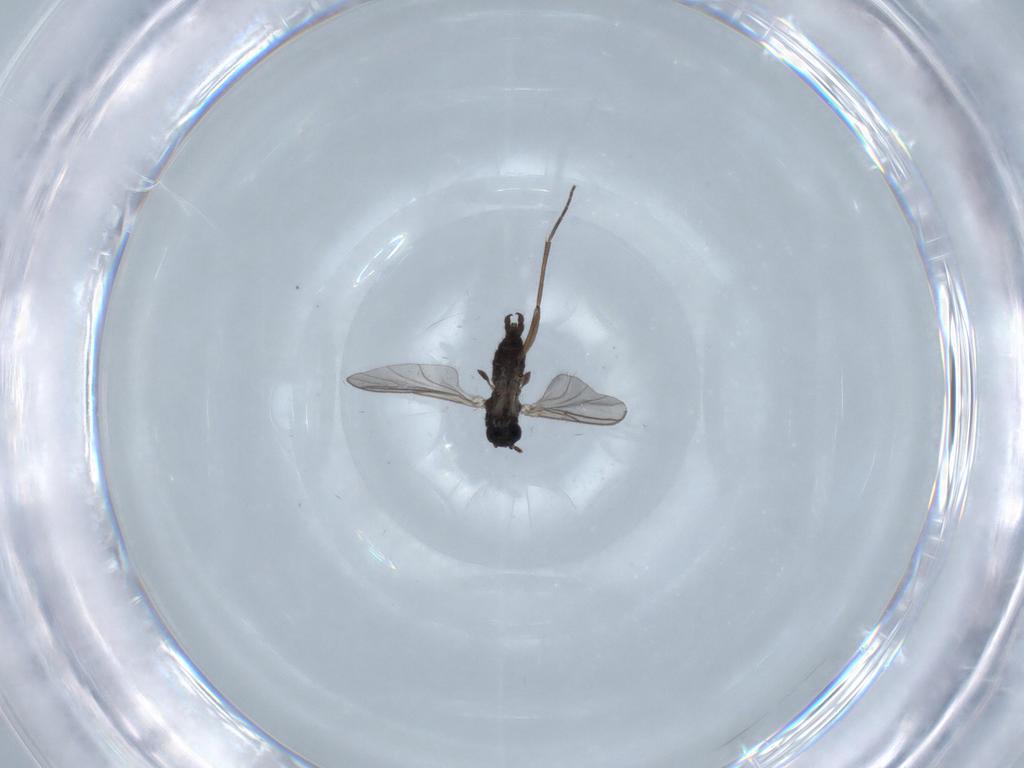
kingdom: Animalia
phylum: Arthropoda
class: Insecta
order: Diptera
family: Sciaridae
